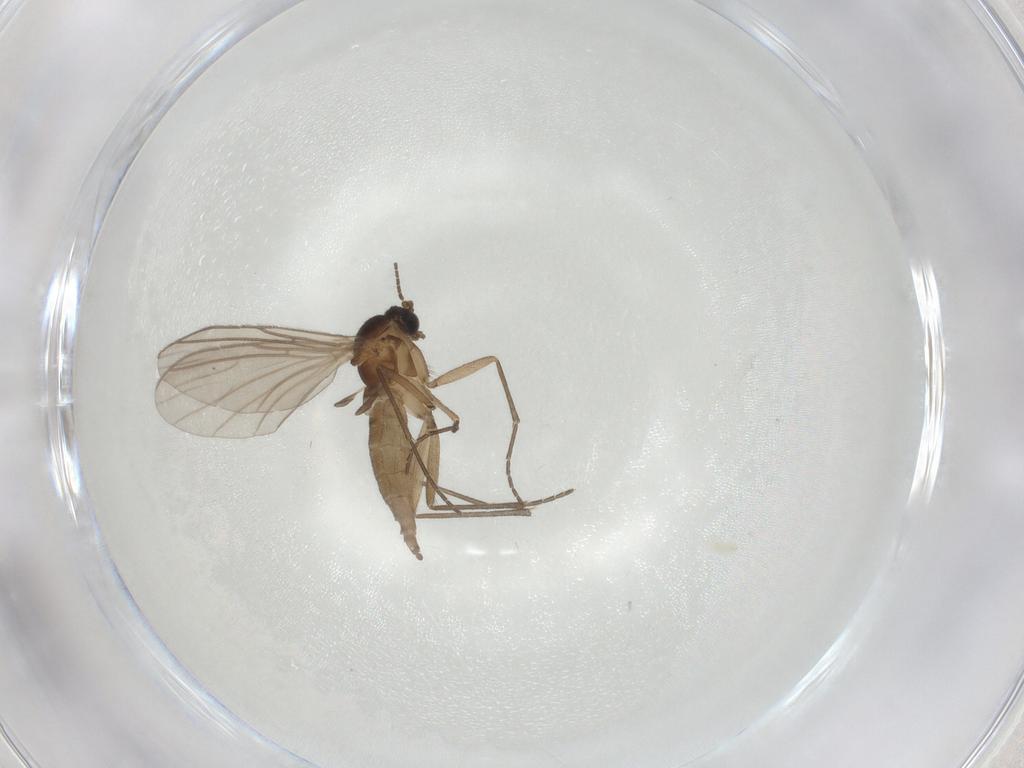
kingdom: Animalia
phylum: Arthropoda
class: Insecta
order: Diptera
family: Sciaridae
